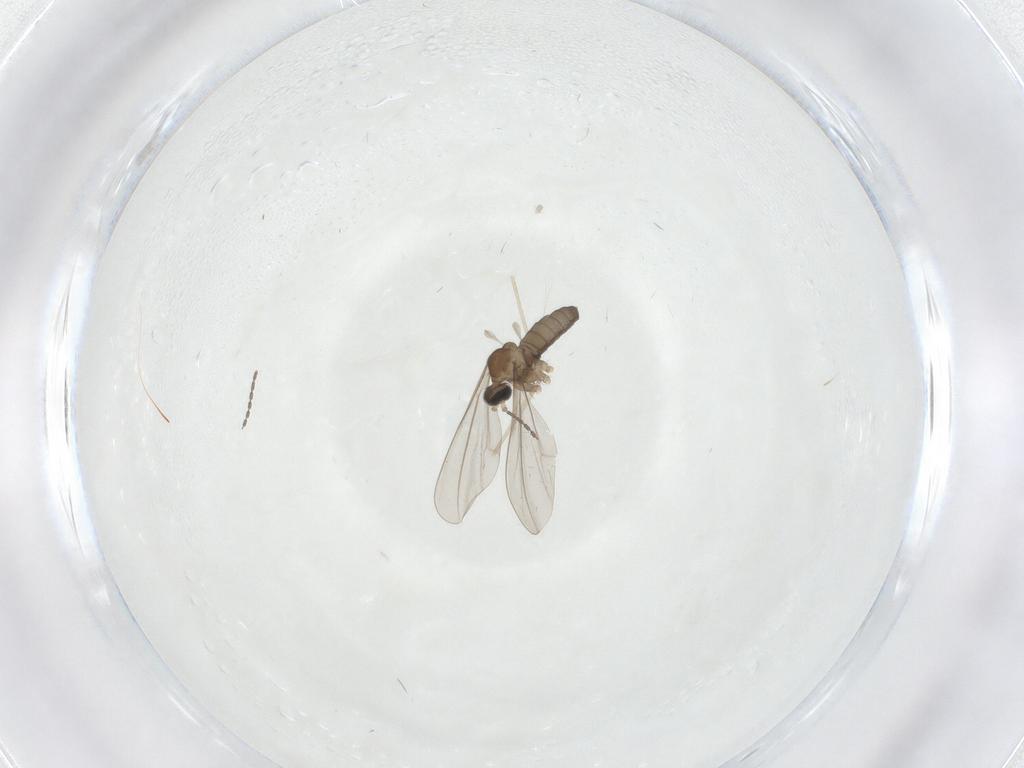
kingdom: Animalia
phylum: Arthropoda
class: Insecta
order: Diptera
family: Cecidomyiidae
